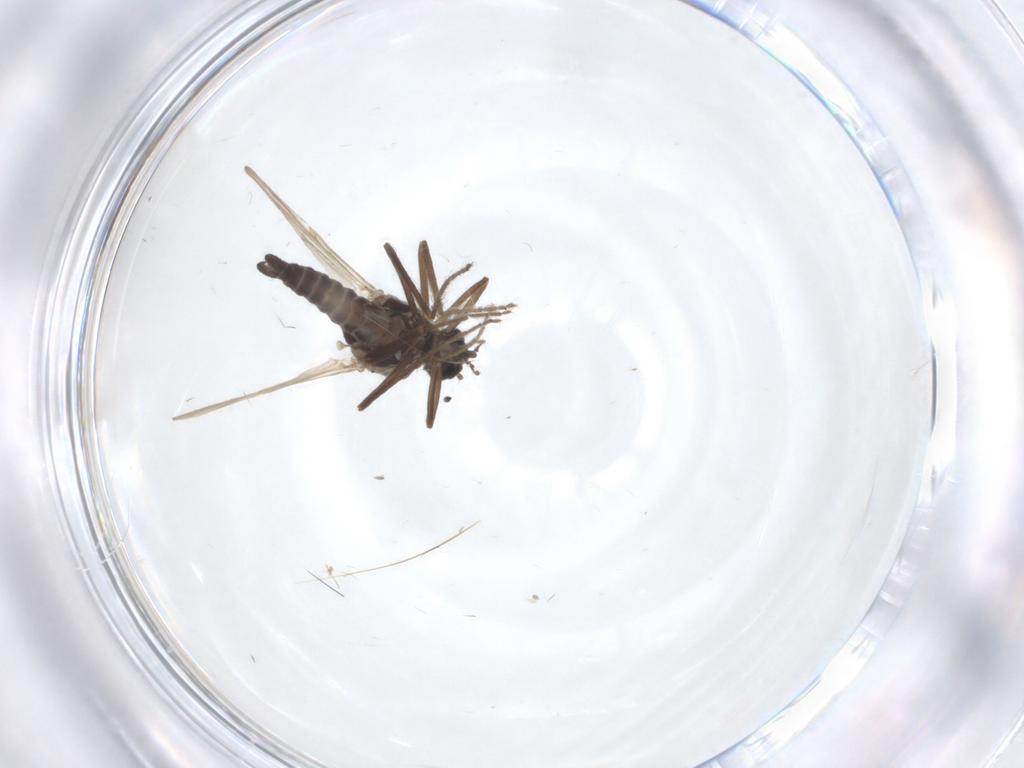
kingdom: Animalia
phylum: Arthropoda
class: Insecta
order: Diptera
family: Ceratopogonidae
